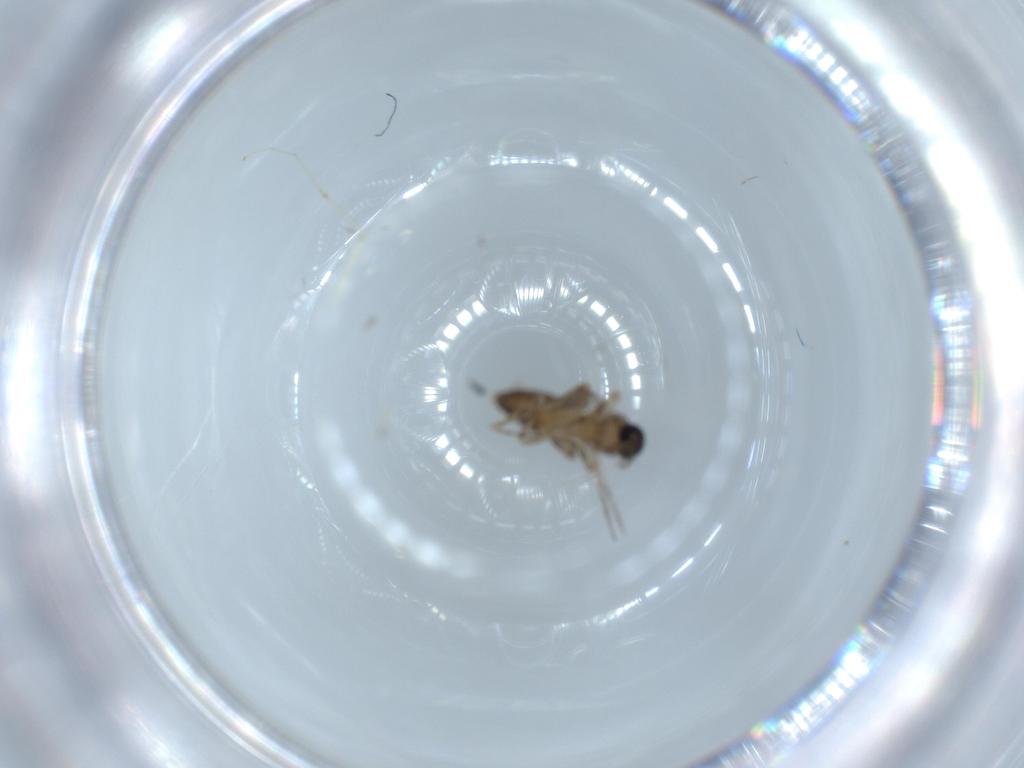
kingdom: Animalia
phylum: Arthropoda
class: Insecta
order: Diptera
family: Ceratopogonidae
